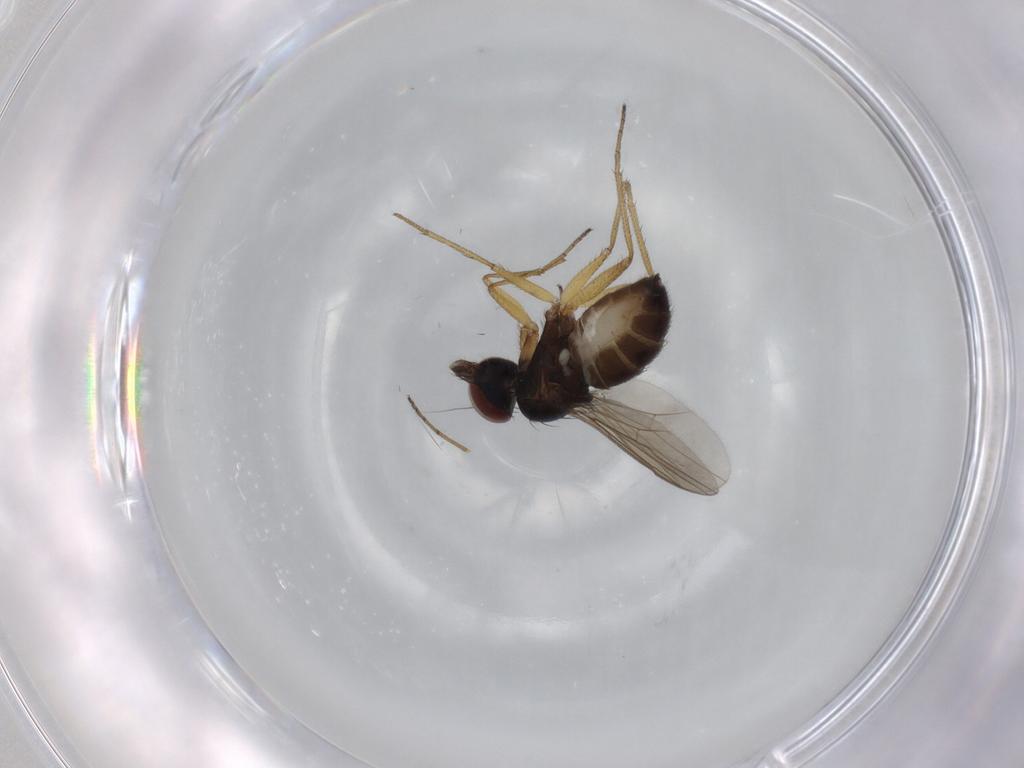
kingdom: Animalia
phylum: Arthropoda
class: Insecta
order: Diptera
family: Dolichopodidae
